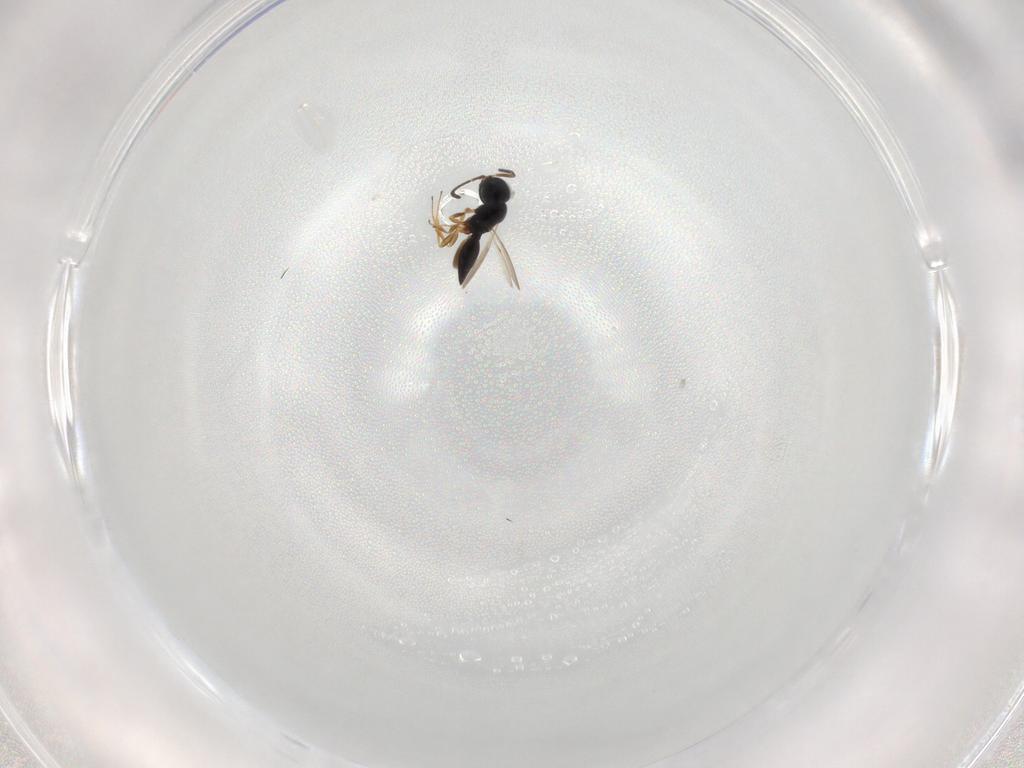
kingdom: Animalia
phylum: Arthropoda
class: Insecta
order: Hymenoptera
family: Scelionidae
